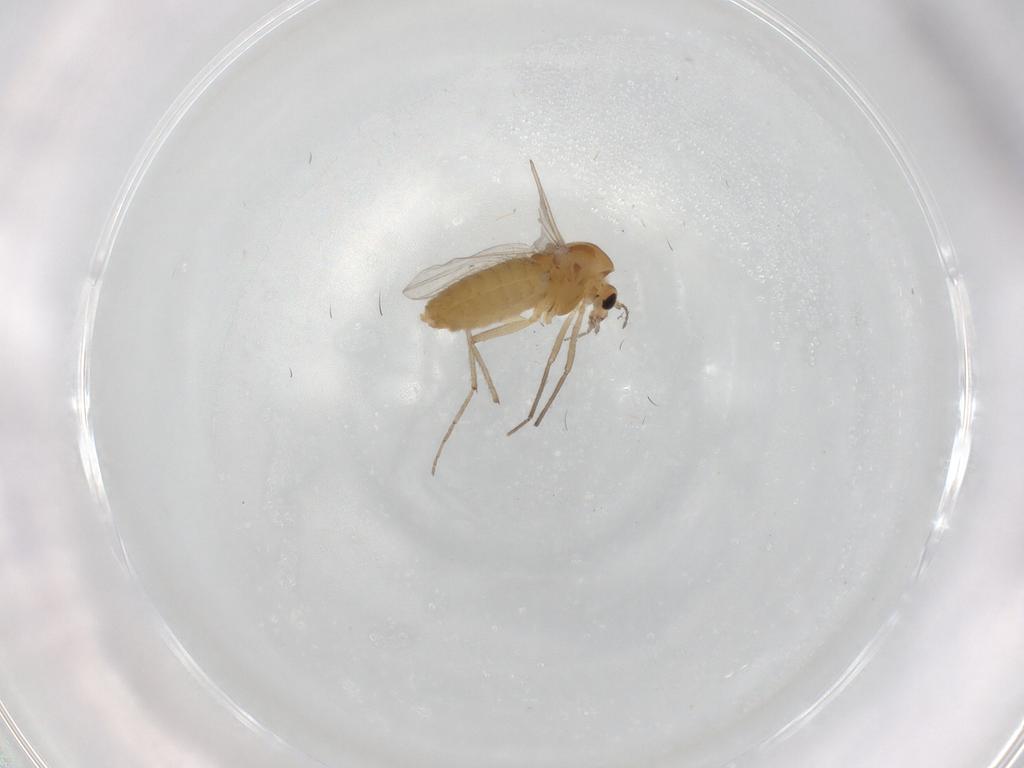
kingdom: Animalia
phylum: Arthropoda
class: Insecta
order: Diptera
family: Chironomidae
